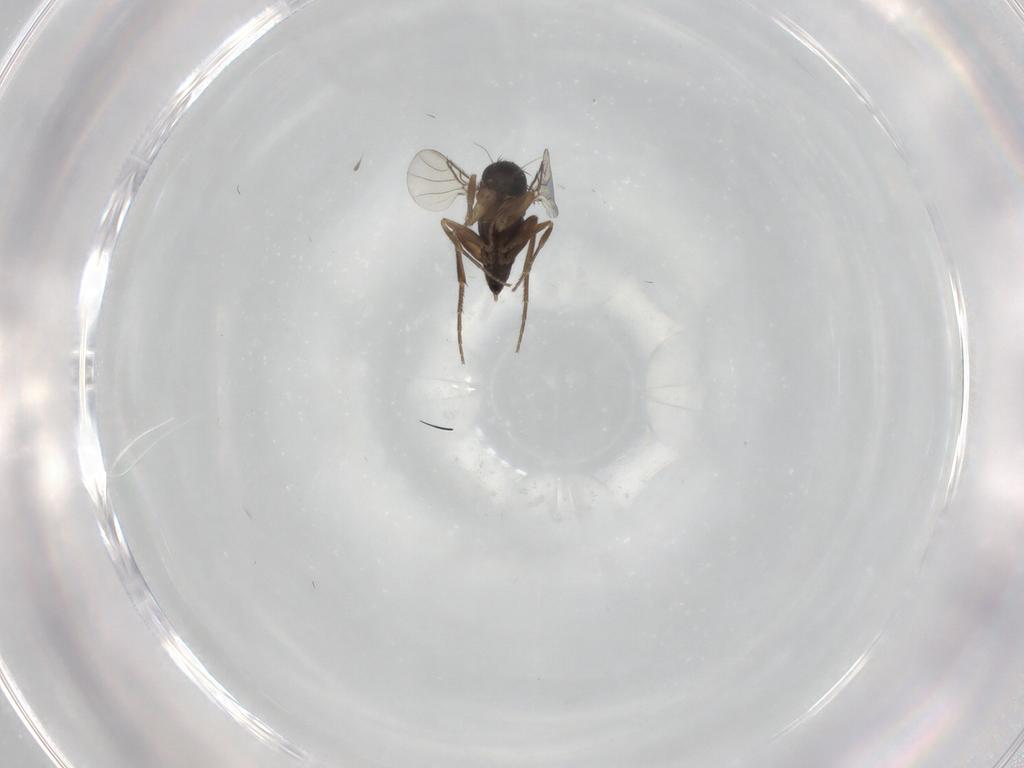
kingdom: Animalia
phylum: Arthropoda
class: Insecta
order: Diptera
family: Phoridae
